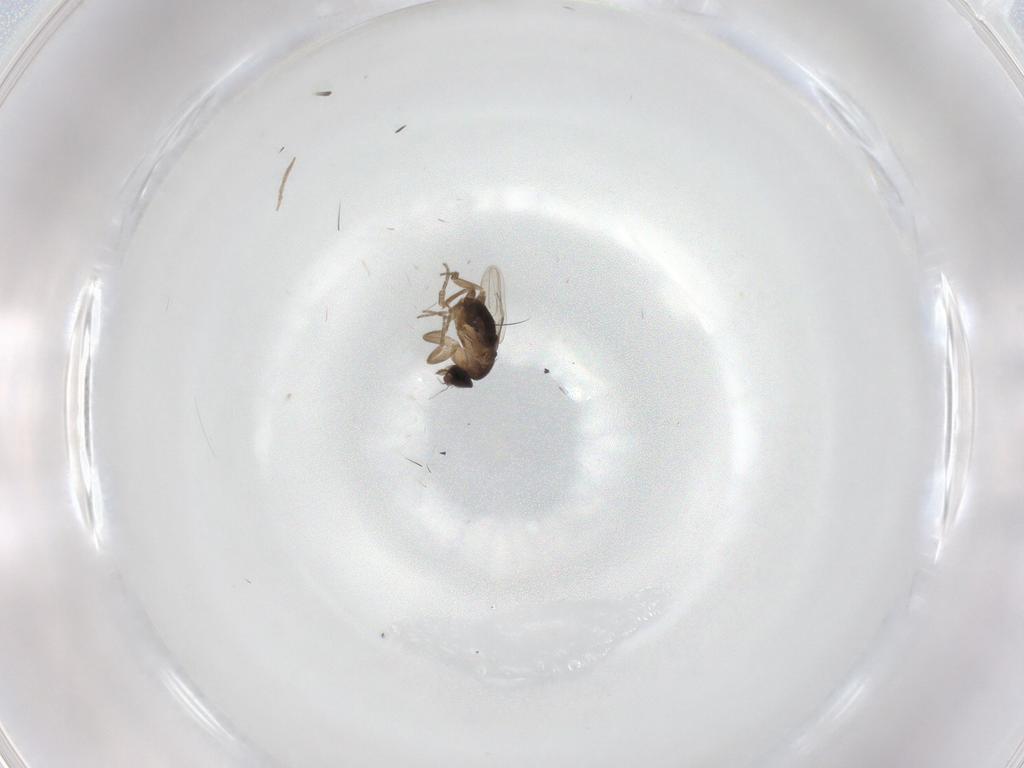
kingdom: Animalia
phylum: Arthropoda
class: Insecta
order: Diptera
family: Phoridae
